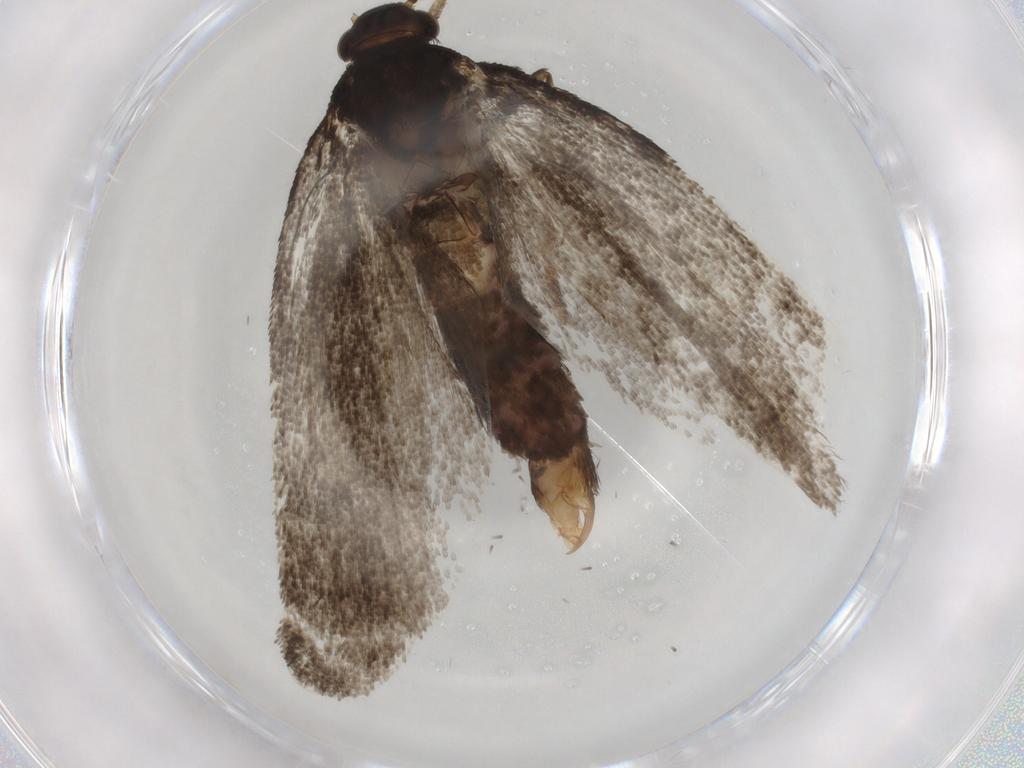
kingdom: Animalia
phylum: Arthropoda
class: Insecta
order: Lepidoptera
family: Lecithoceridae
